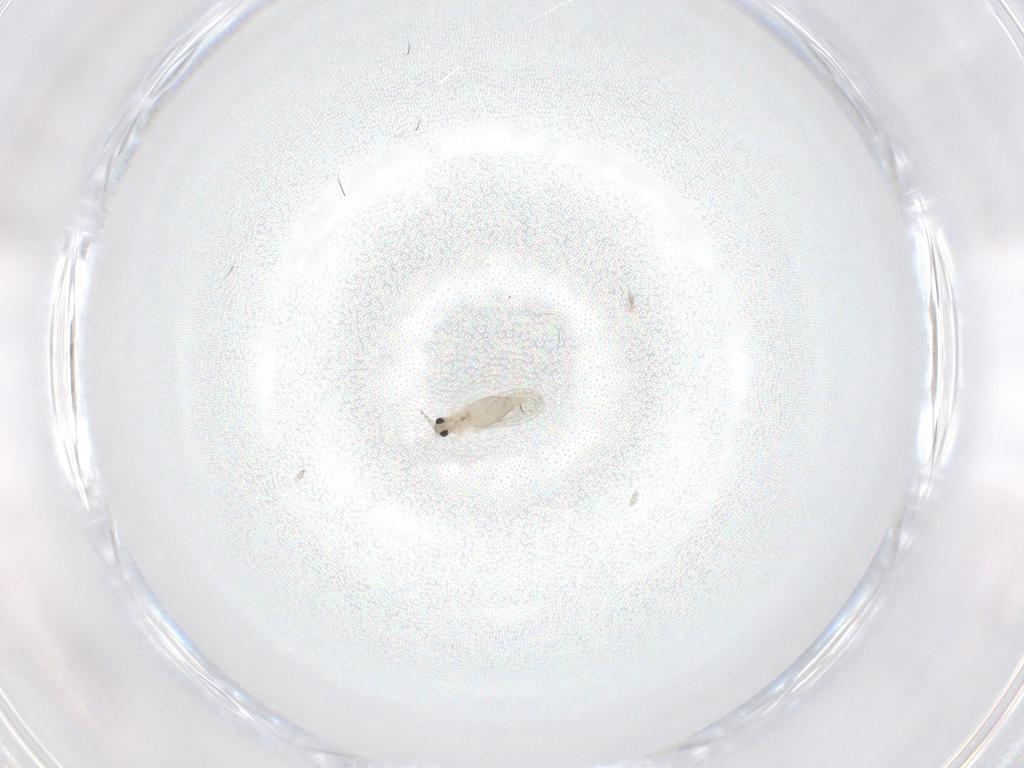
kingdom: Animalia
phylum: Arthropoda
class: Insecta
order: Diptera
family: Cecidomyiidae
